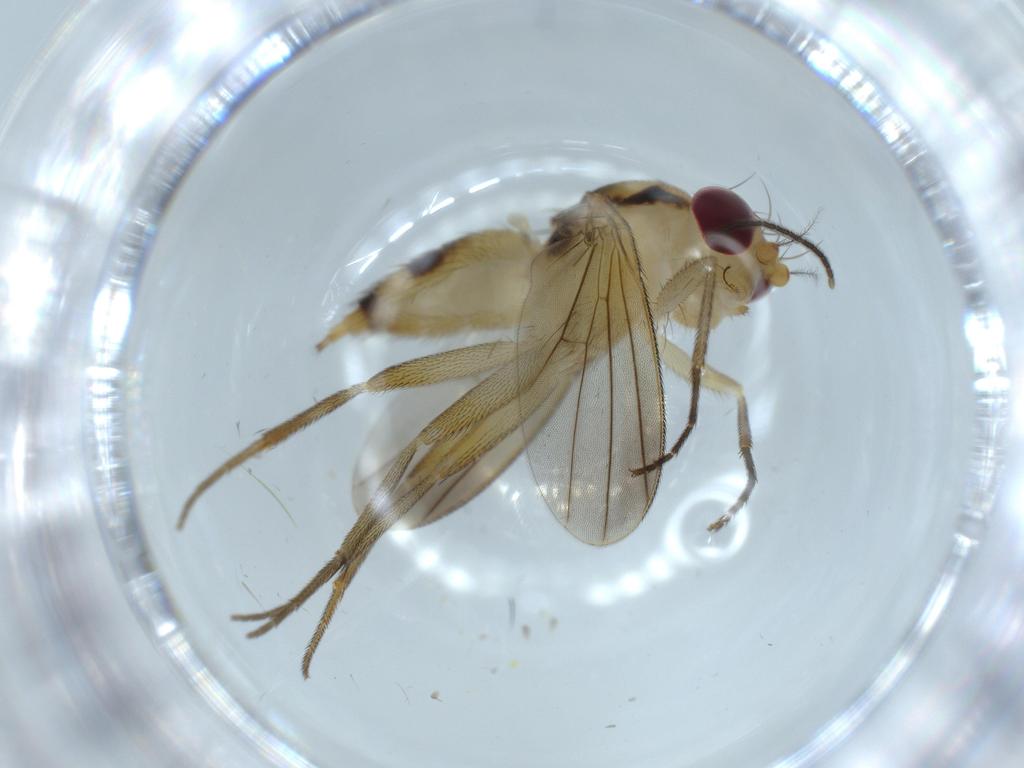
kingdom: Animalia
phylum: Arthropoda
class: Insecta
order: Diptera
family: Clusiidae
